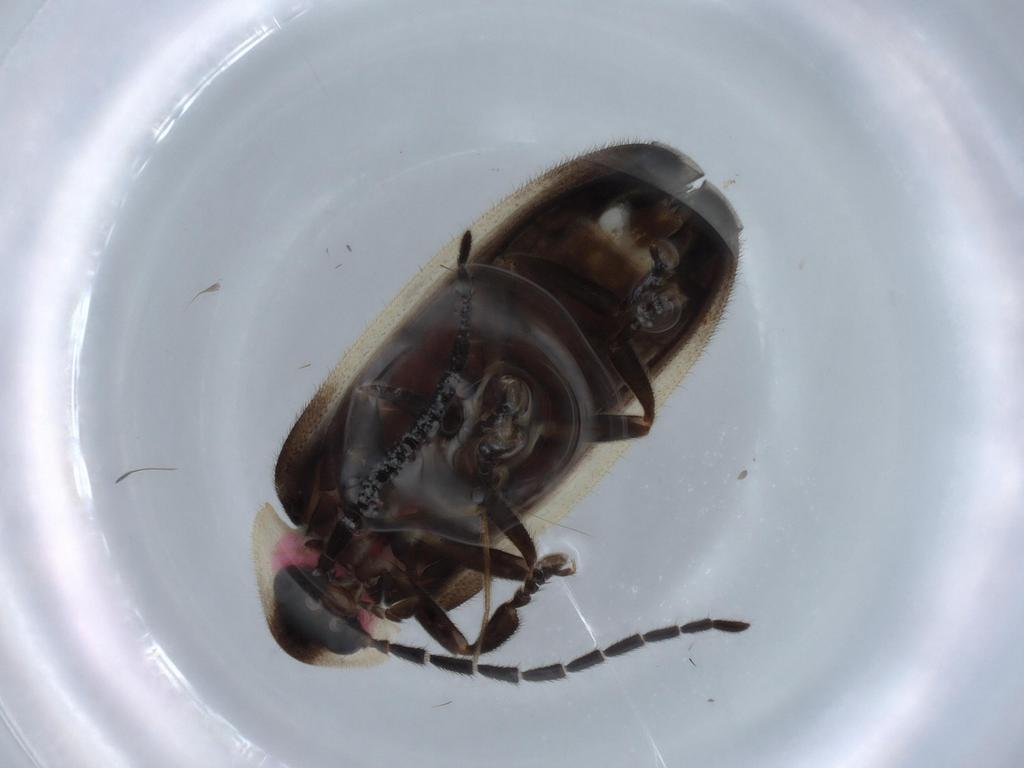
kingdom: Animalia
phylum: Arthropoda
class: Insecta
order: Coleoptera
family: Lampyridae
